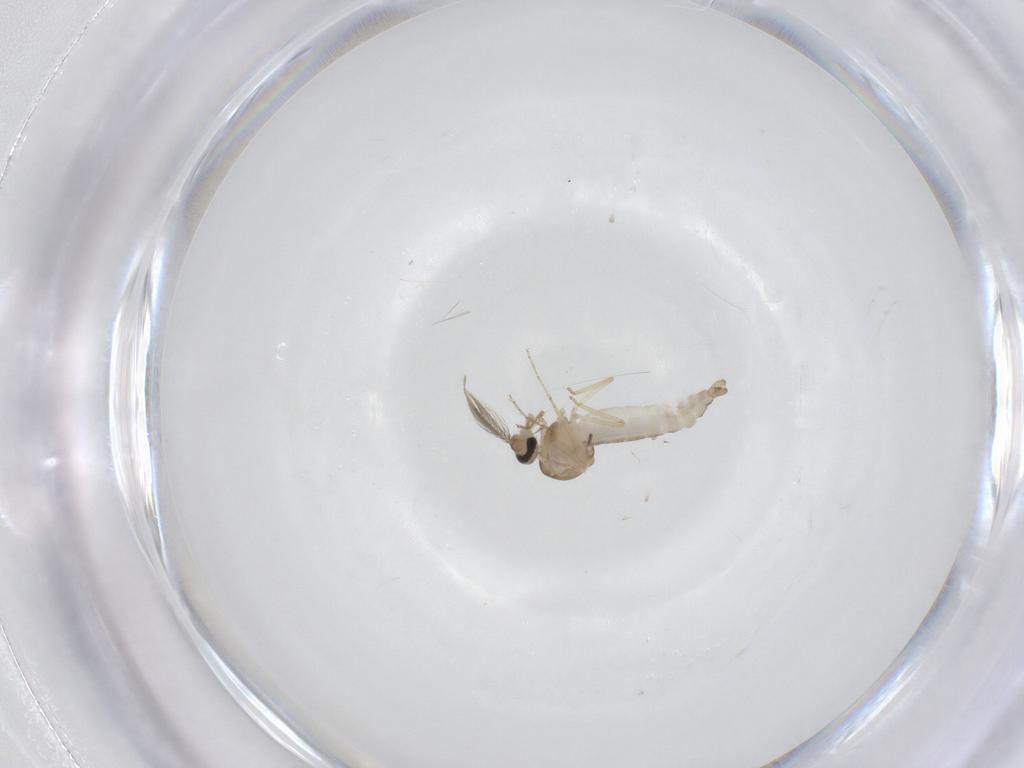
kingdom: Animalia
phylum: Arthropoda
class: Insecta
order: Diptera
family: Ceratopogonidae
